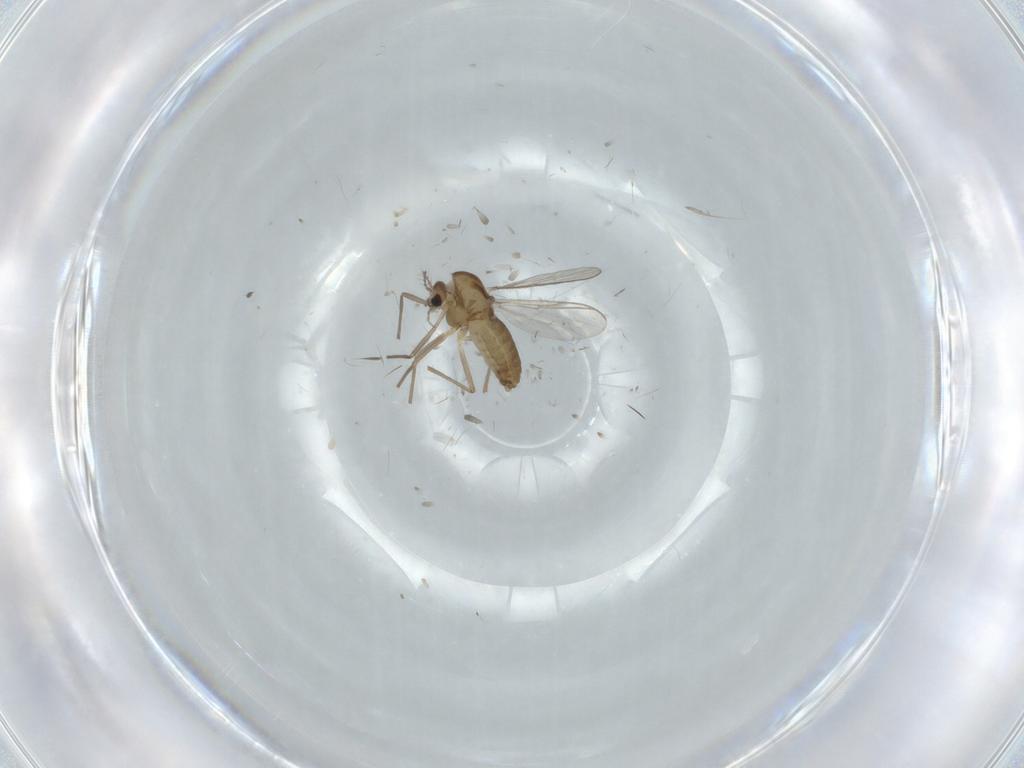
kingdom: Animalia
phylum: Arthropoda
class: Insecta
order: Diptera
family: Chironomidae
